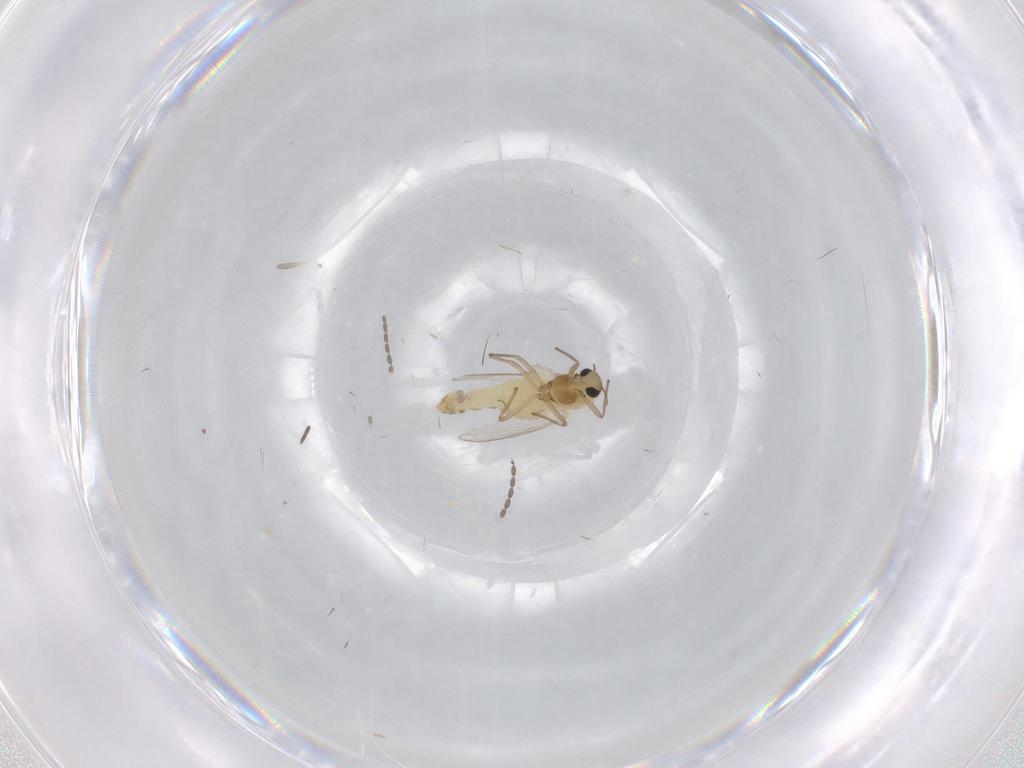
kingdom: Animalia
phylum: Arthropoda
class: Insecta
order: Diptera
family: Chironomidae
